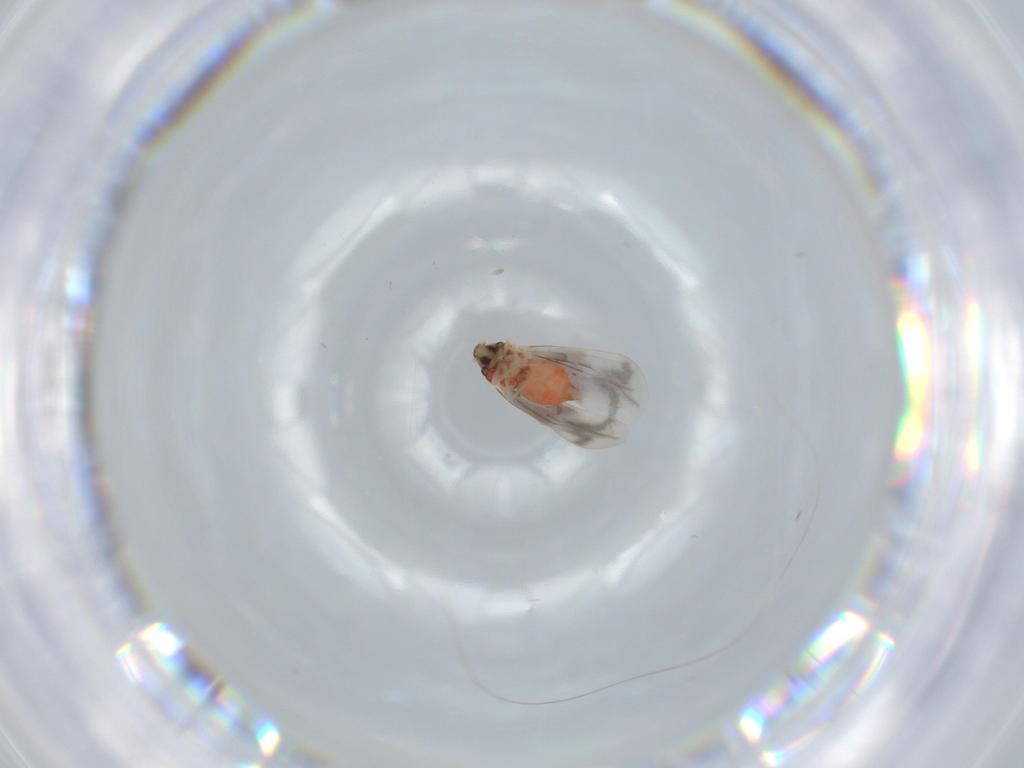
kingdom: Animalia
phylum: Arthropoda
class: Insecta
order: Hemiptera
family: Aleyrodidae
